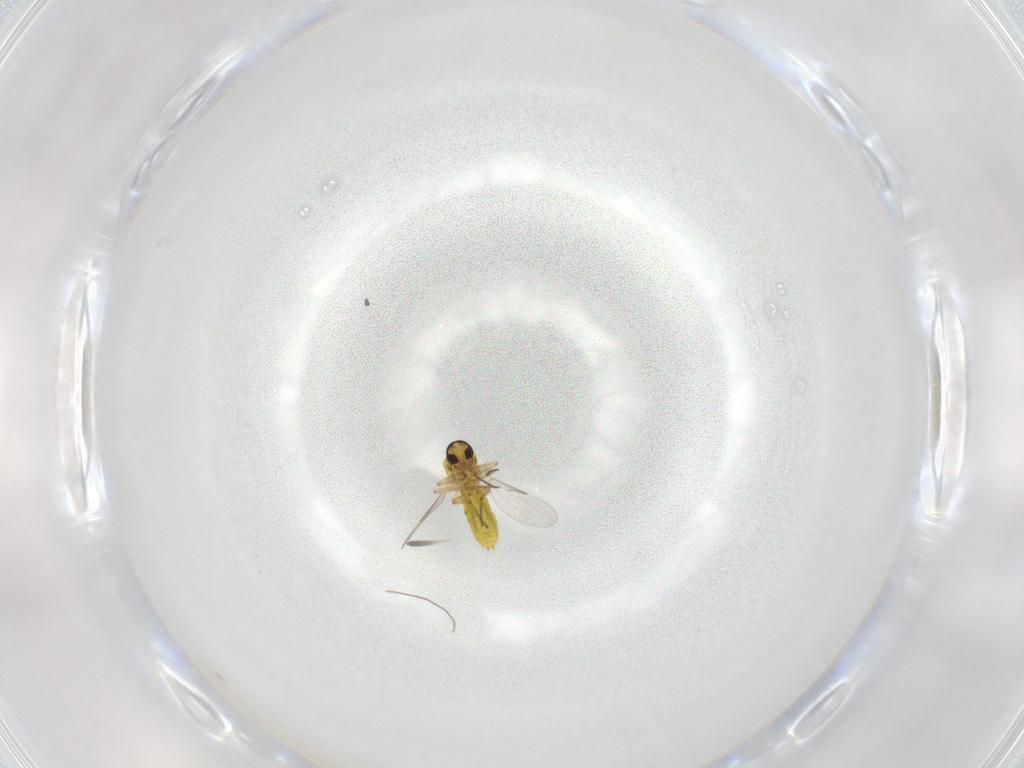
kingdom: Animalia
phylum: Arthropoda
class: Insecta
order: Diptera
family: Ceratopogonidae
